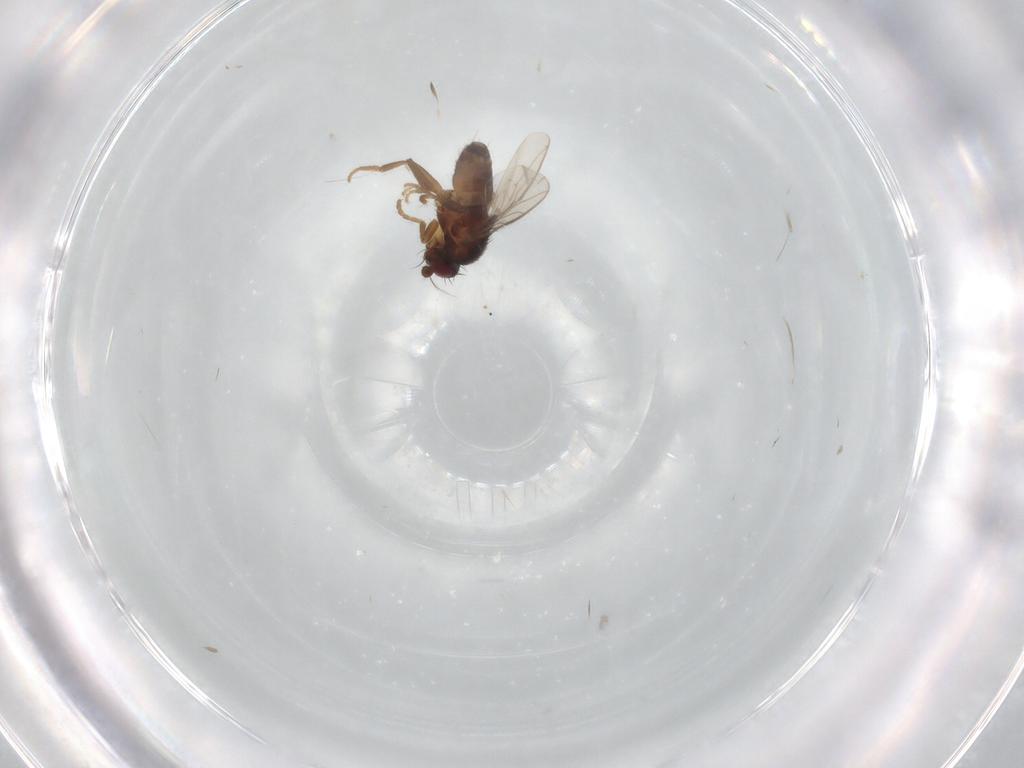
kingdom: Animalia
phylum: Arthropoda
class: Insecta
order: Diptera
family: Sphaeroceridae
